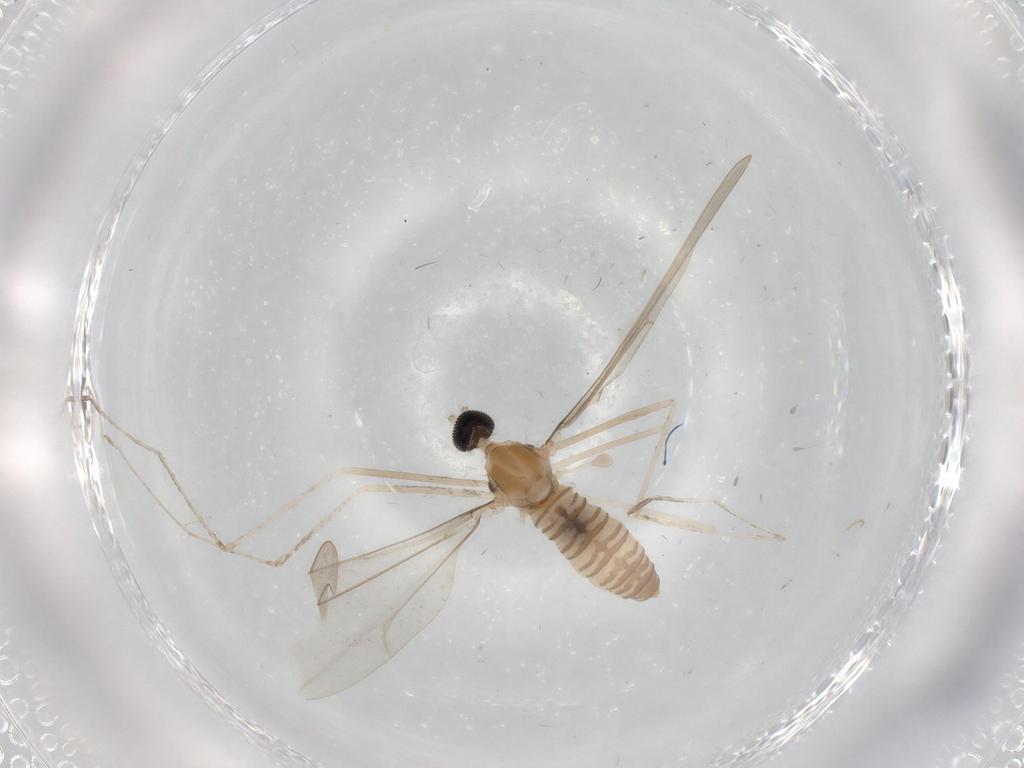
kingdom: Animalia
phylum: Arthropoda
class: Insecta
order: Diptera
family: Cecidomyiidae
